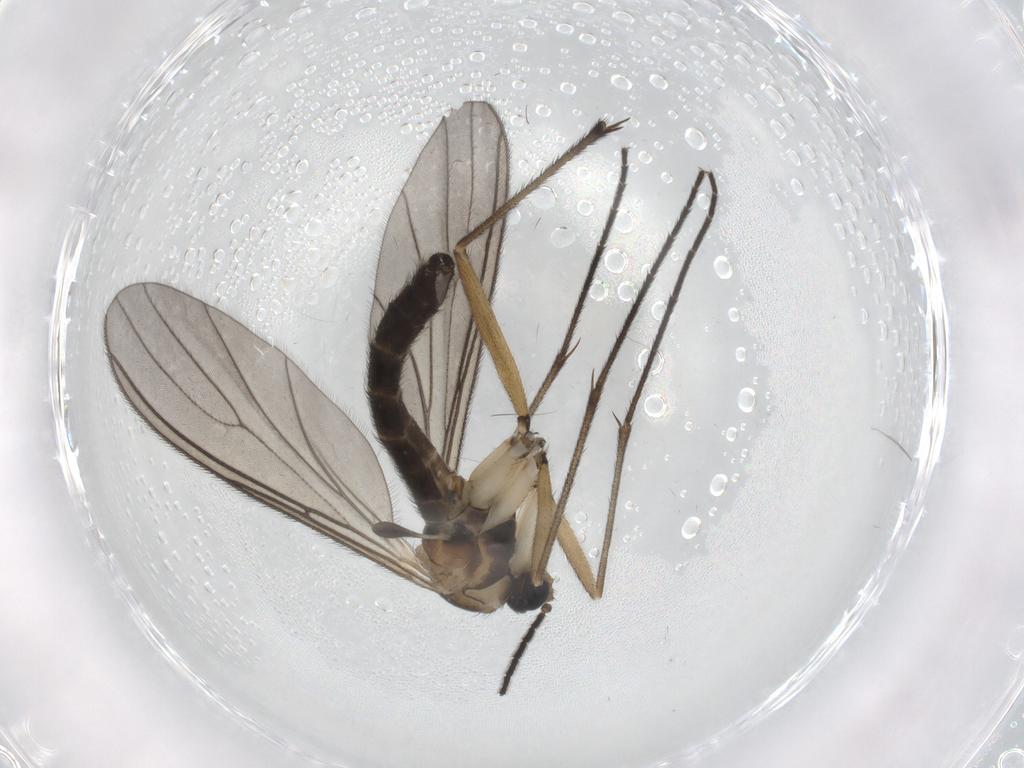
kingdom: Animalia
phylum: Arthropoda
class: Insecta
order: Diptera
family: Sciaridae
